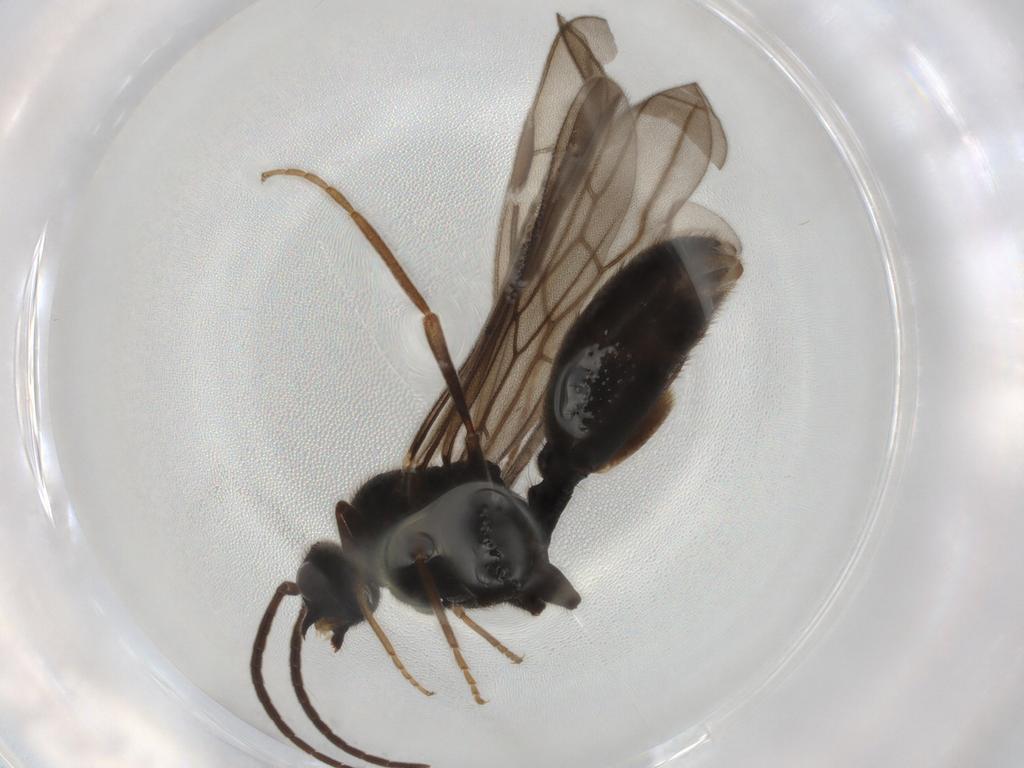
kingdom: Animalia
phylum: Arthropoda
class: Insecta
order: Hymenoptera
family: Formicidae
